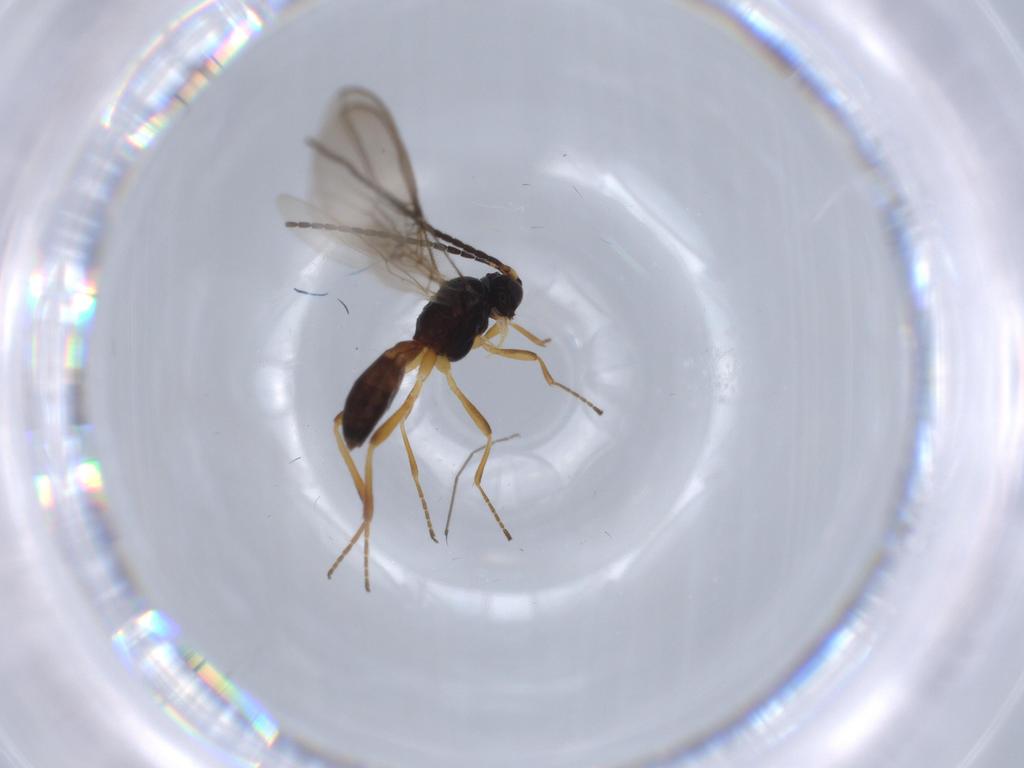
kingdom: Animalia
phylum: Arthropoda
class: Insecta
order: Hymenoptera
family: Braconidae
